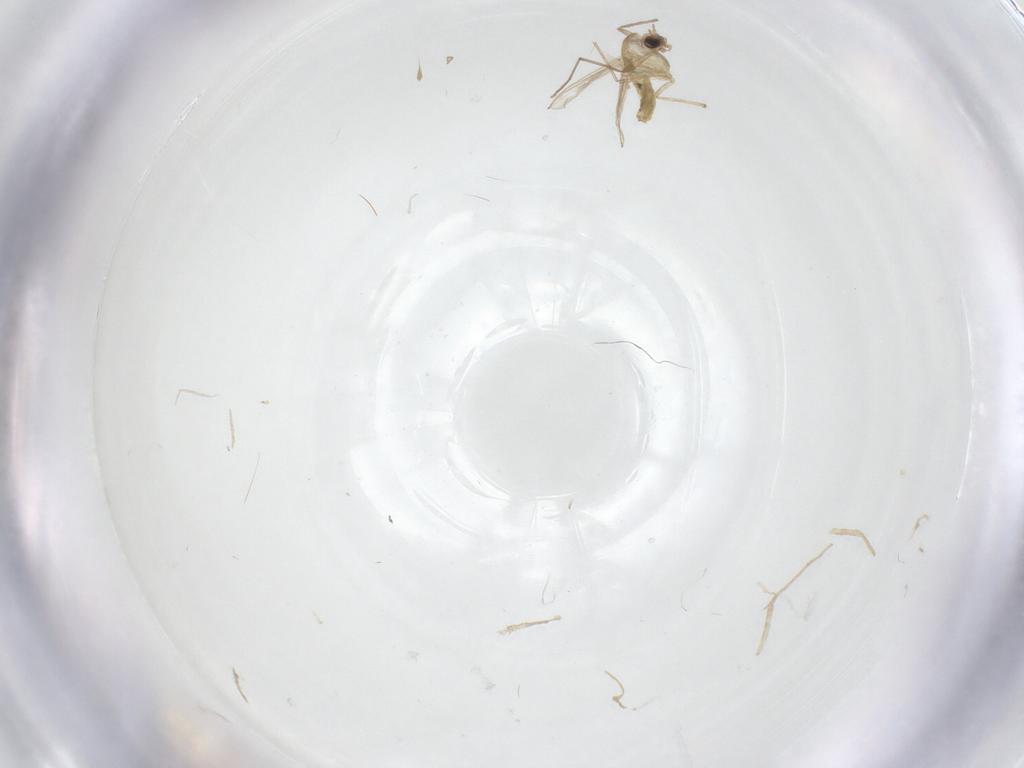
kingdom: Animalia
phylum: Arthropoda
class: Insecta
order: Diptera
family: Chironomidae
